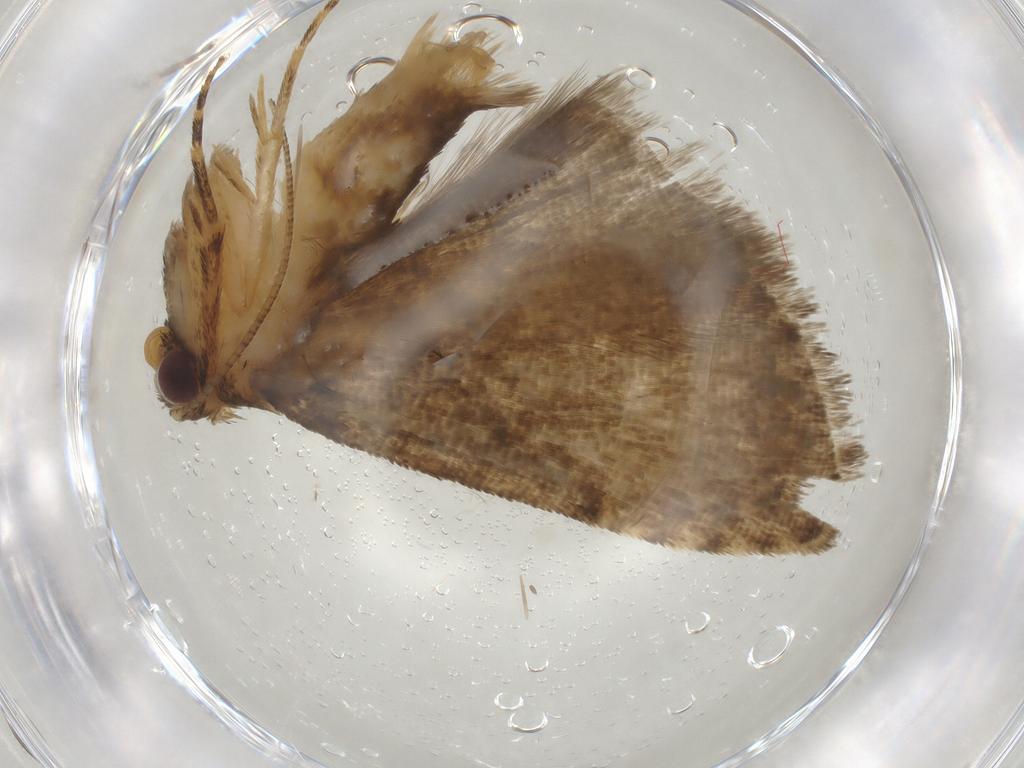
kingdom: Animalia
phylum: Arthropoda
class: Insecta
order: Lepidoptera
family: Erebidae
